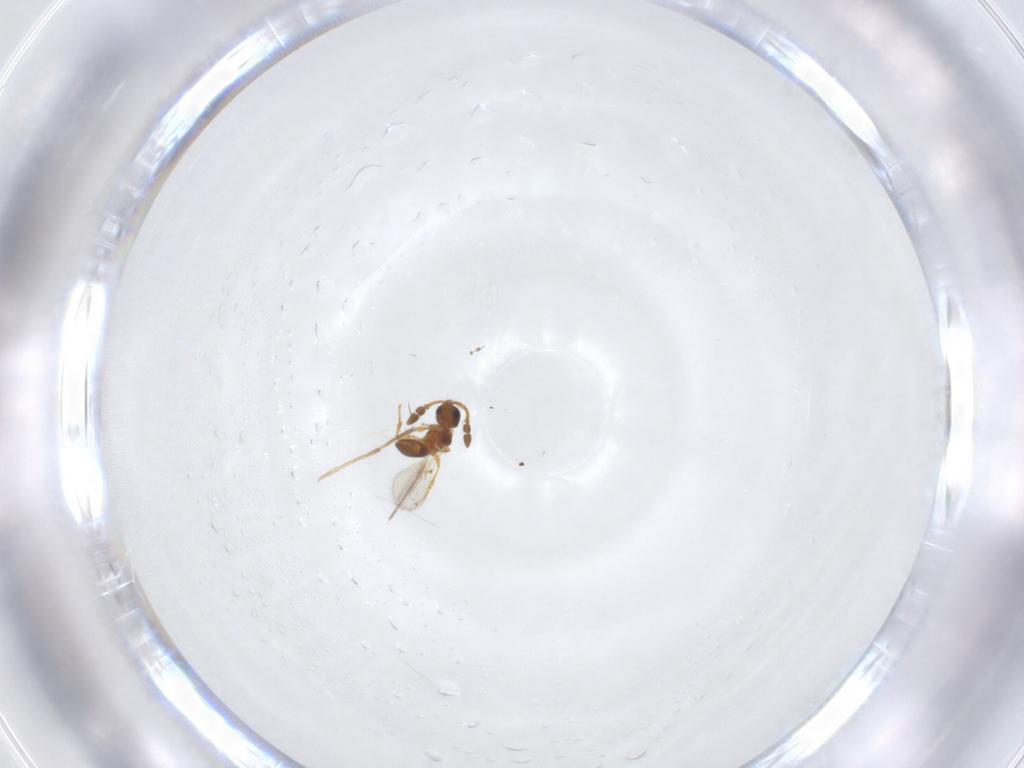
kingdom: Animalia
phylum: Arthropoda
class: Insecta
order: Hymenoptera
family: Diapriidae
